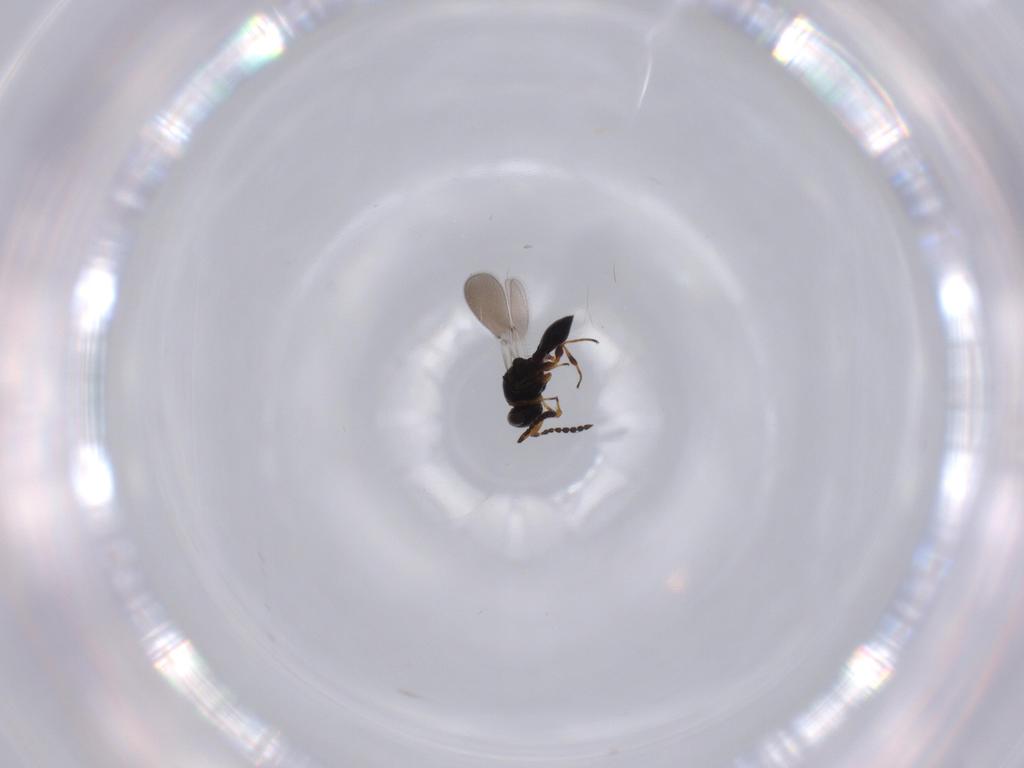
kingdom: Animalia
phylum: Arthropoda
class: Insecta
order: Hymenoptera
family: Platygastridae
